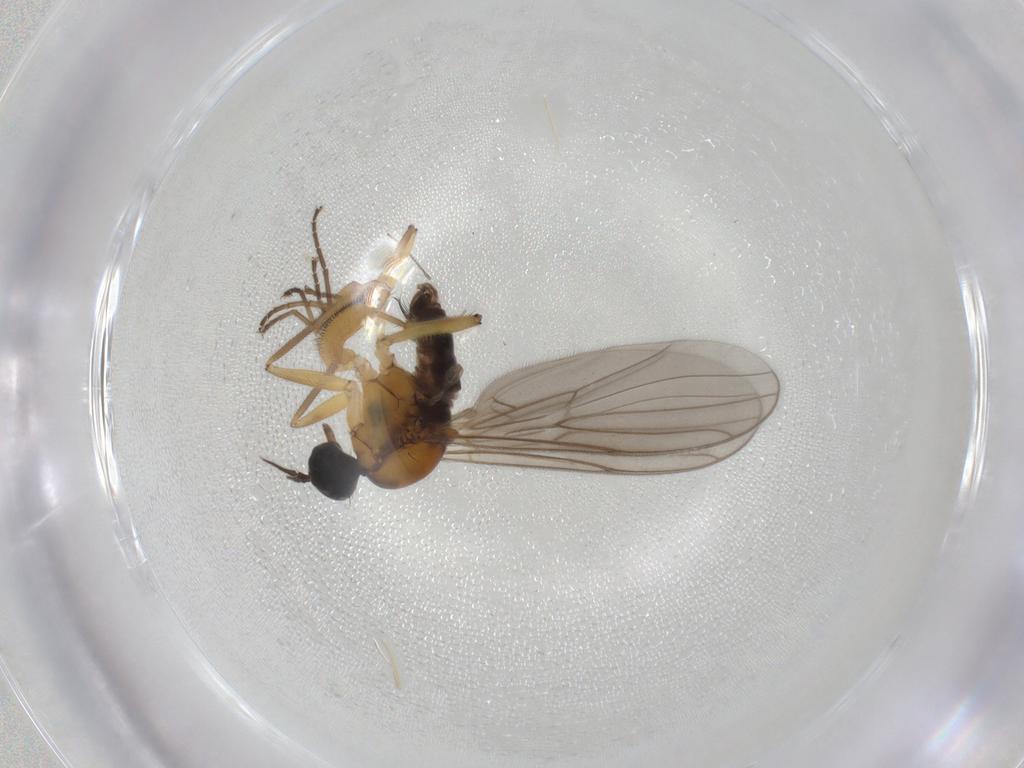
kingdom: Animalia
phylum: Arthropoda
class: Insecta
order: Diptera
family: Hybotidae
